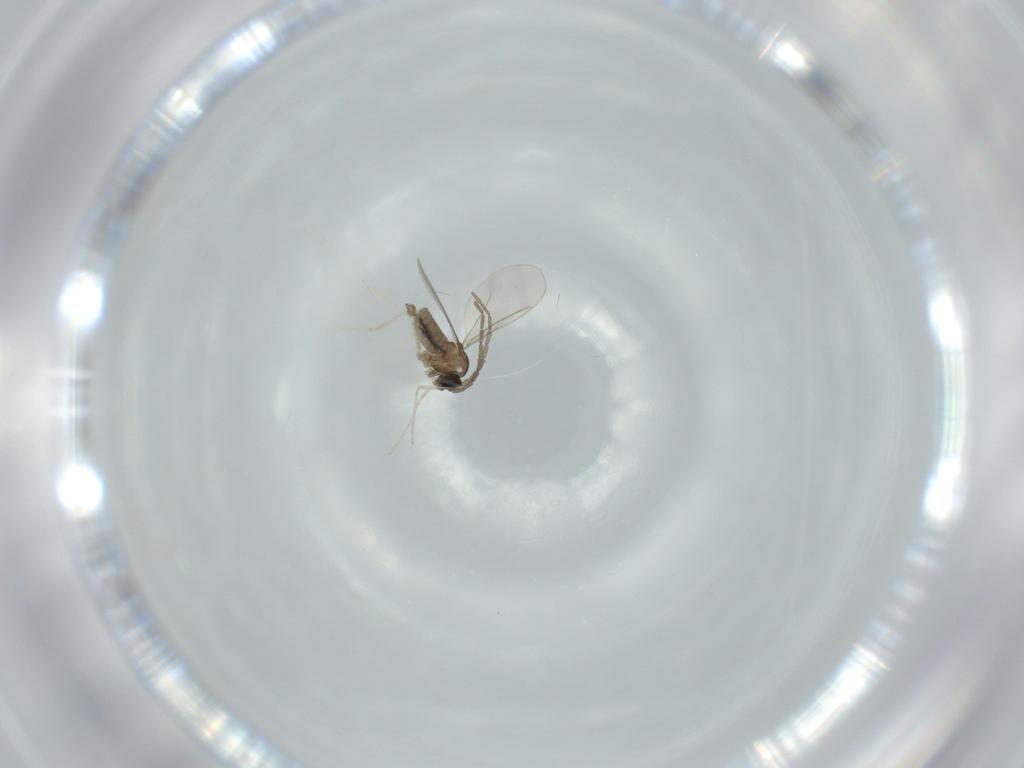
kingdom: Animalia
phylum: Arthropoda
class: Insecta
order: Diptera
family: Cecidomyiidae
